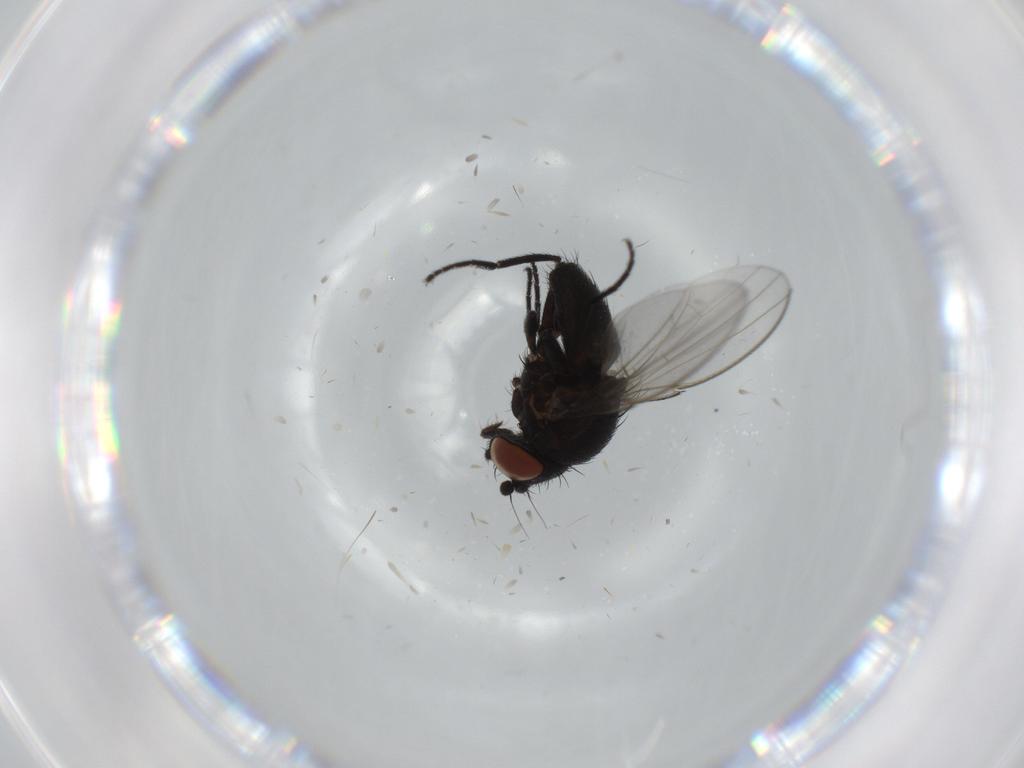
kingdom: Animalia
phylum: Arthropoda
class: Insecta
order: Diptera
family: Milichiidae
